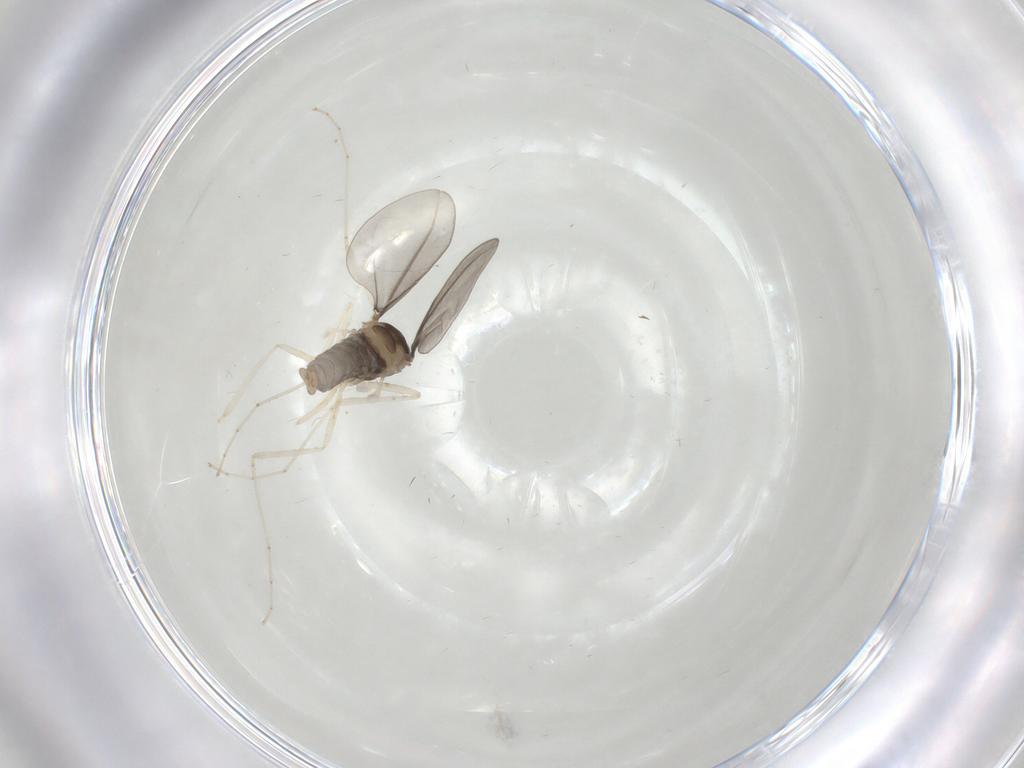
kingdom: Animalia
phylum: Arthropoda
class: Insecta
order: Diptera
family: Cecidomyiidae
